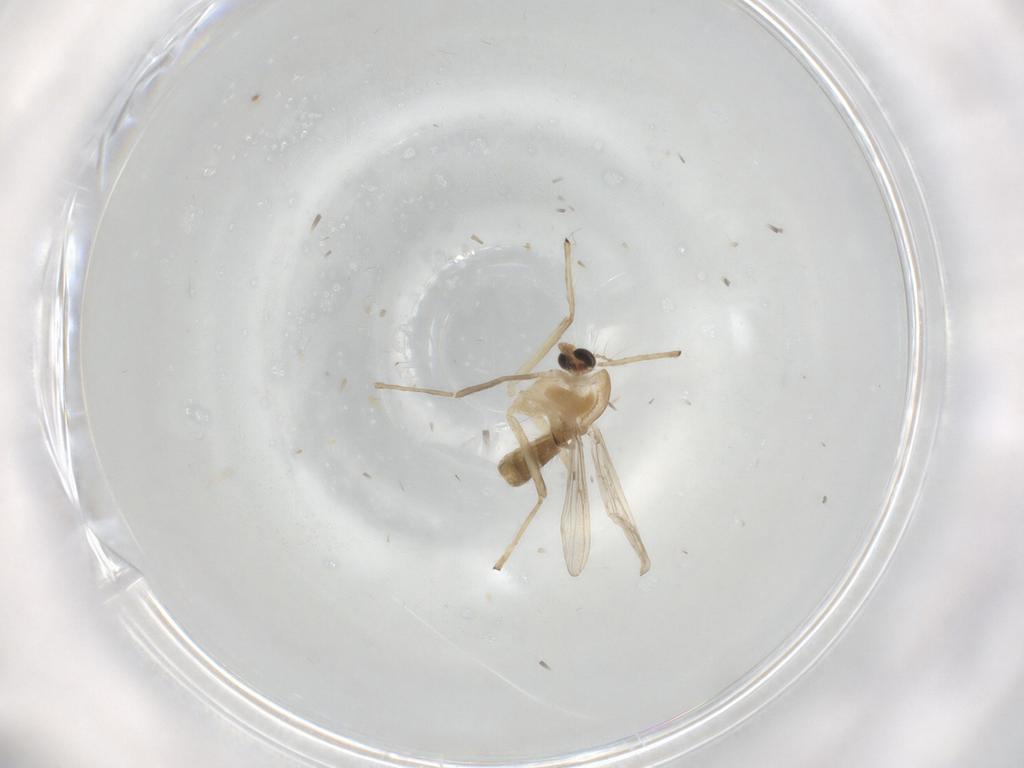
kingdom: Animalia
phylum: Arthropoda
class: Insecta
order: Diptera
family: Chironomidae
